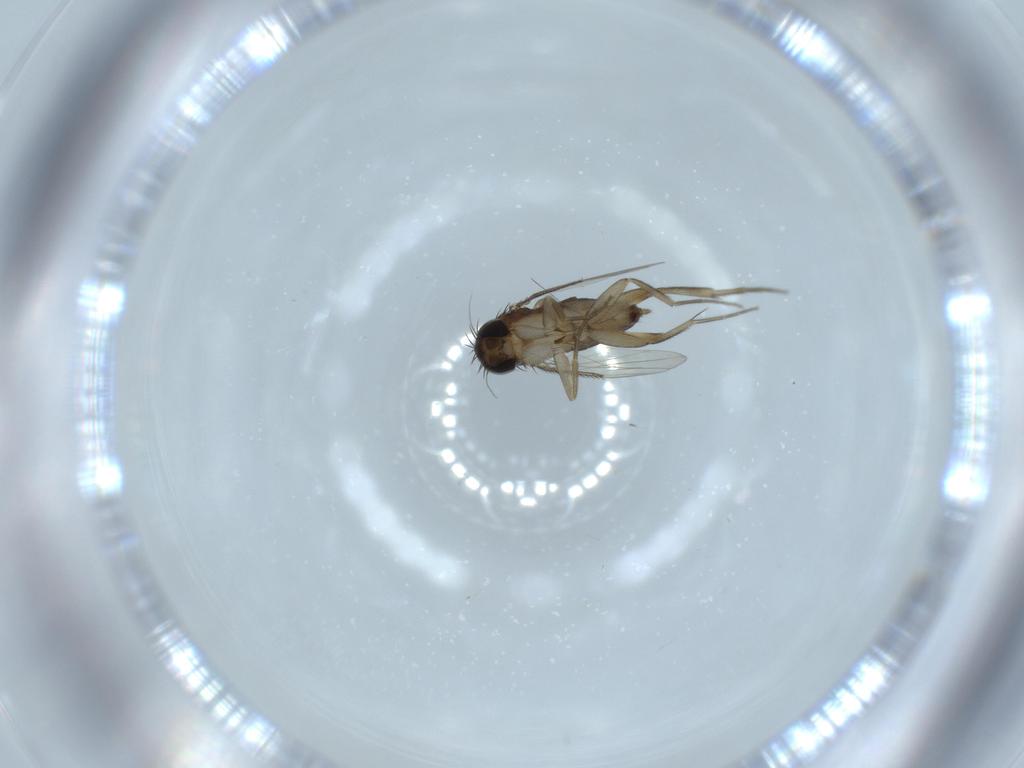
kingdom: Animalia
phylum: Arthropoda
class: Insecta
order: Diptera
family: Phoridae
